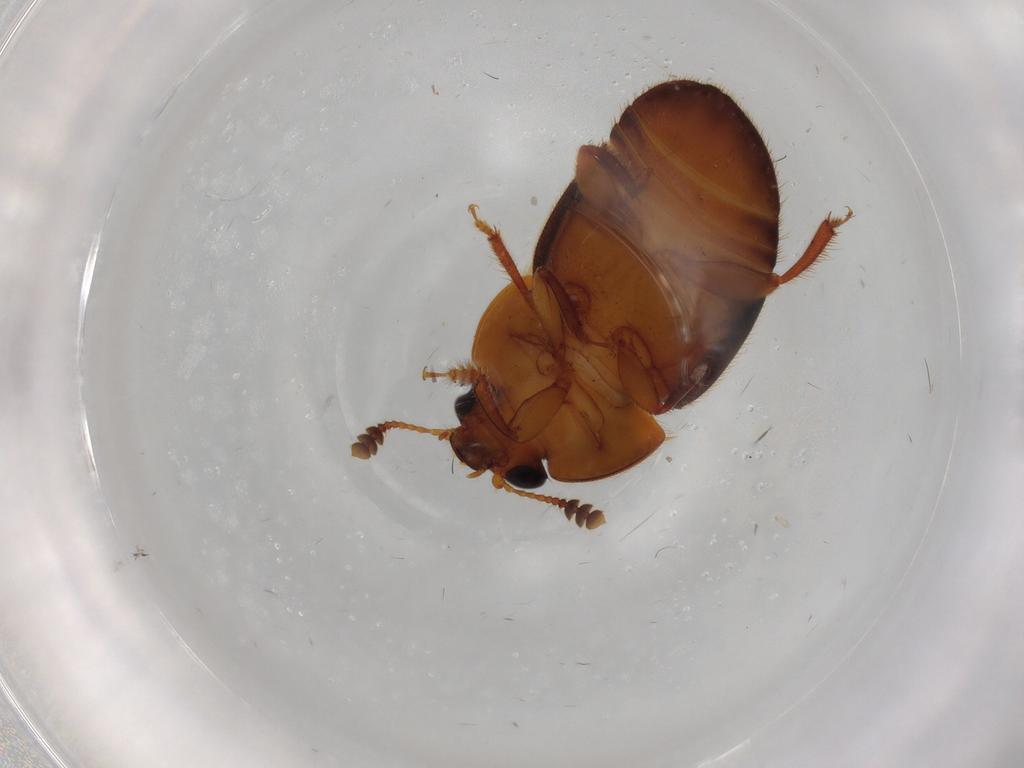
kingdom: Animalia
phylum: Arthropoda
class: Insecta
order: Coleoptera
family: Nitidulidae
